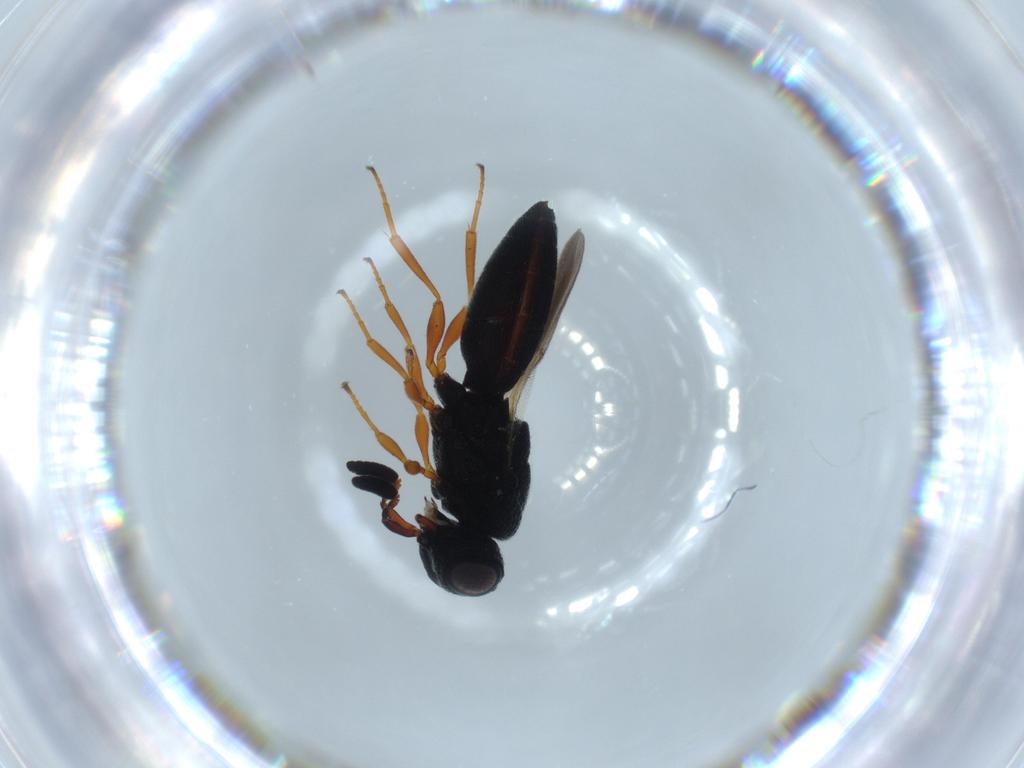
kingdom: Animalia
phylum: Arthropoda
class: Insecta
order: Hymenoptera
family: Scelionidae
